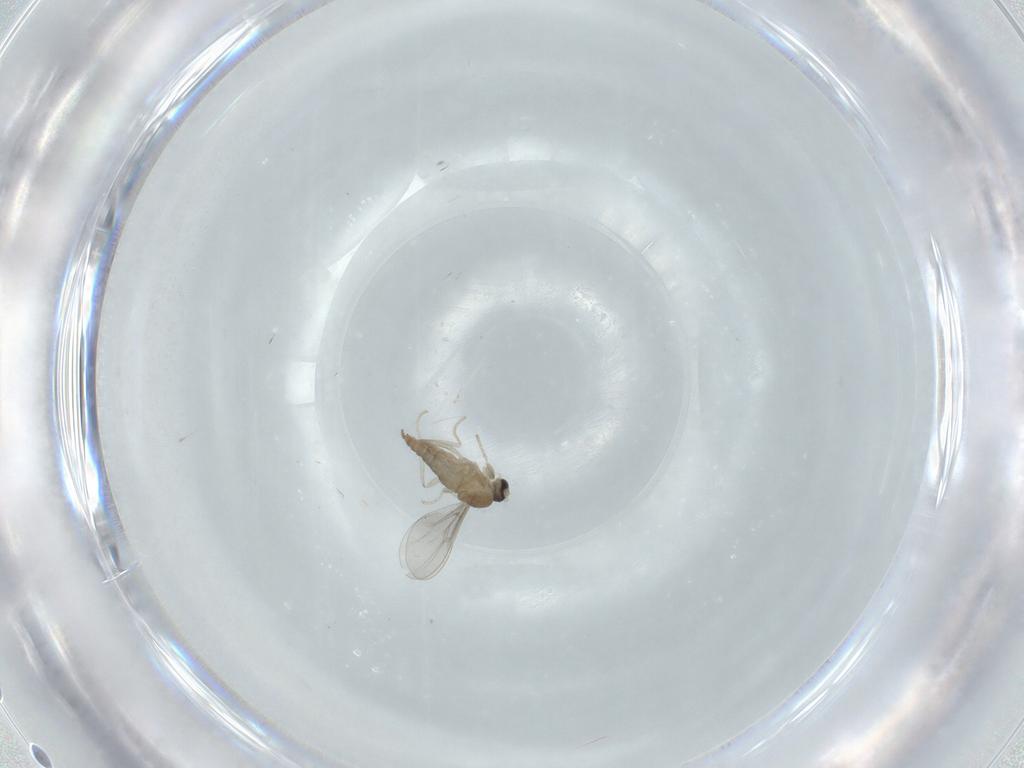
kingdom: Animalia
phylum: Arthropoda
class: Insecta
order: Diptera
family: Cecidomyiidae
